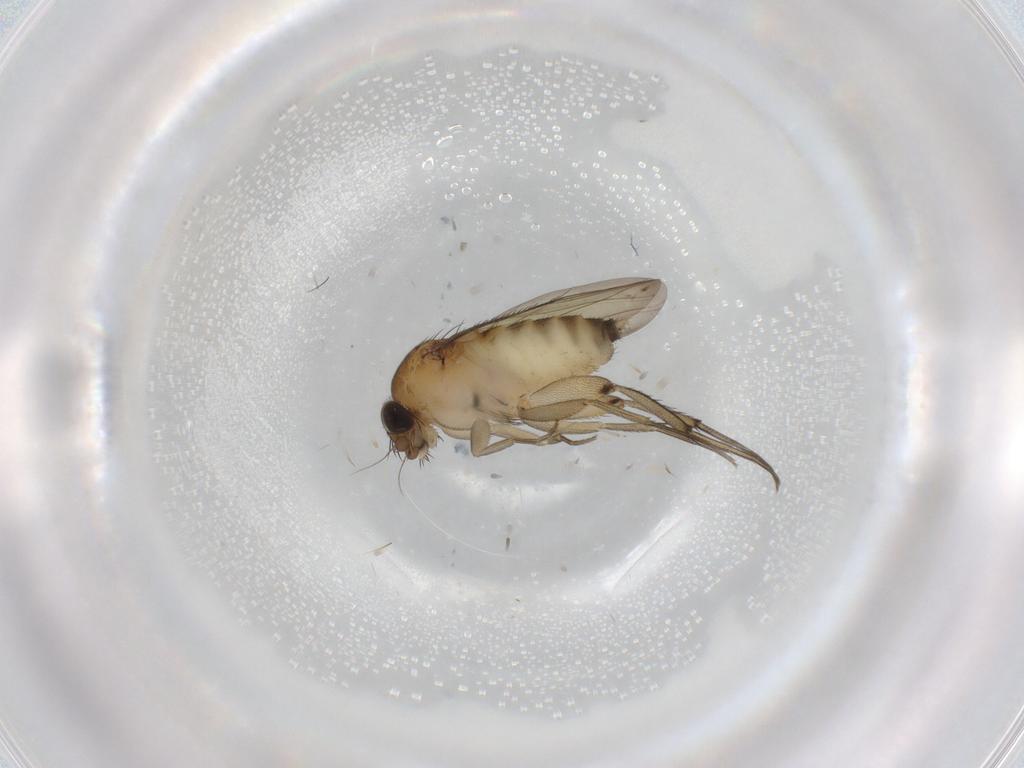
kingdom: Animalia
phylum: Arthropoda
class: Insecta
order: Diptera
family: Phoridae
